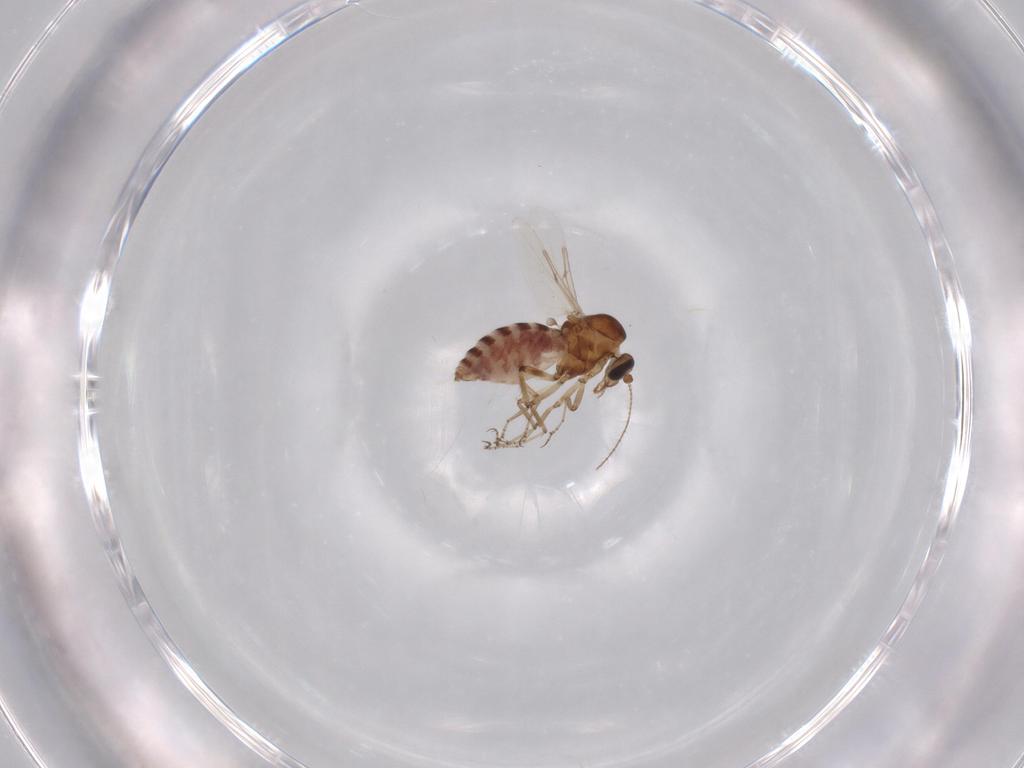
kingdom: Animalia
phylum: Arthropoda
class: Insecta
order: Diptera
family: Ceratopogonidae
